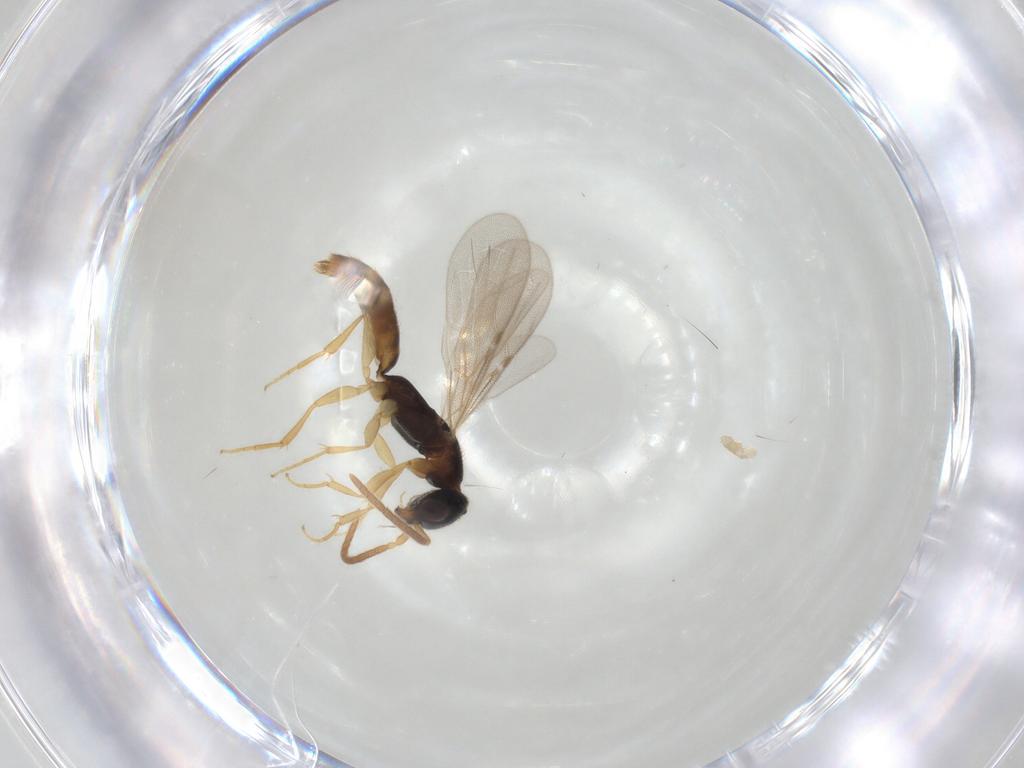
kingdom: Animalia
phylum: Arthropoda
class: Insecta
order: Hymenoptera
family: Bethylidae
